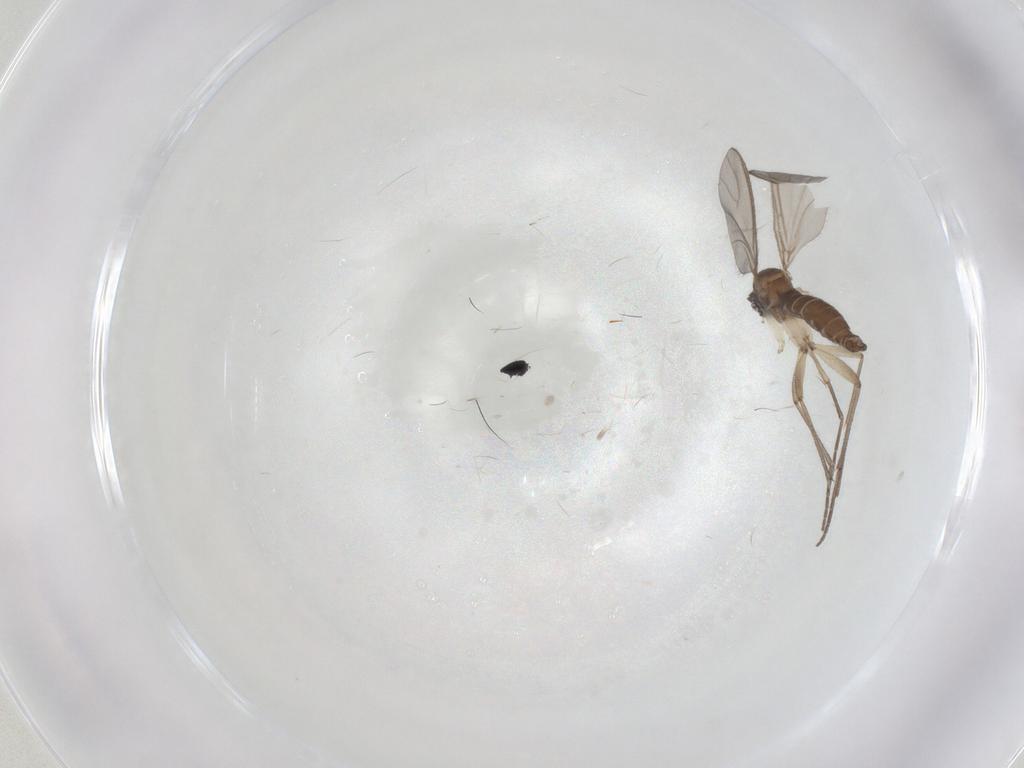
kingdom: Animalia
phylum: Arthropoda
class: Insecta
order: Diptera
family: Sciaridae
